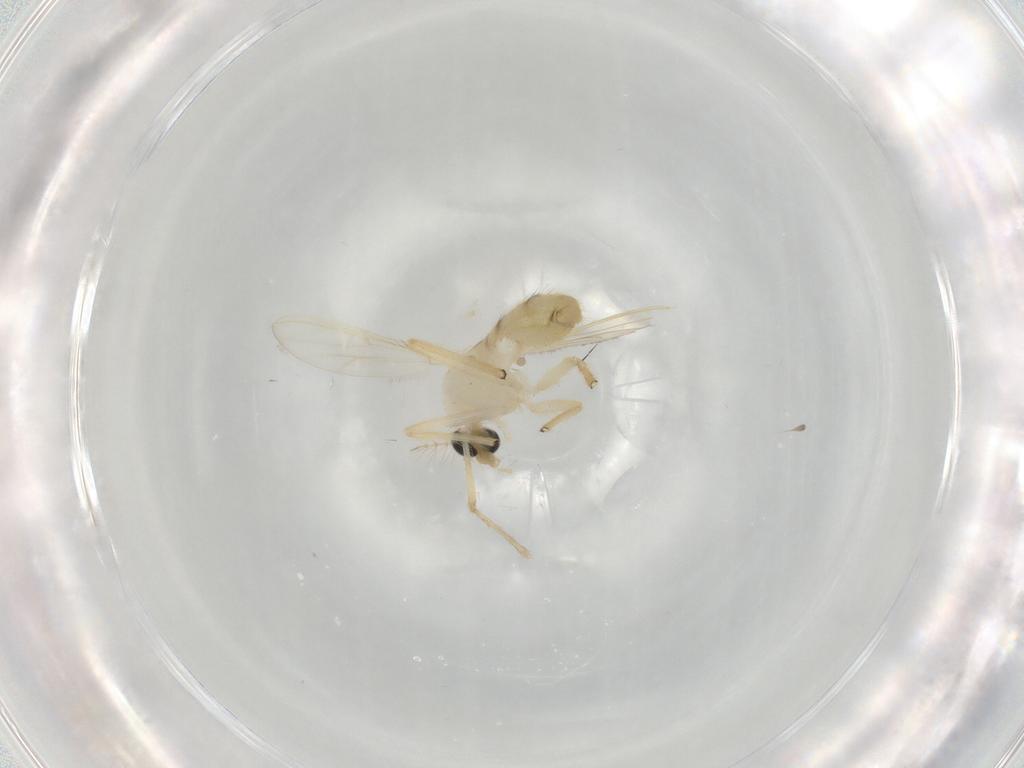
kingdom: Animalia
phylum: Arthropoda
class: Insecta
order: Diptera
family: Chironomidae
